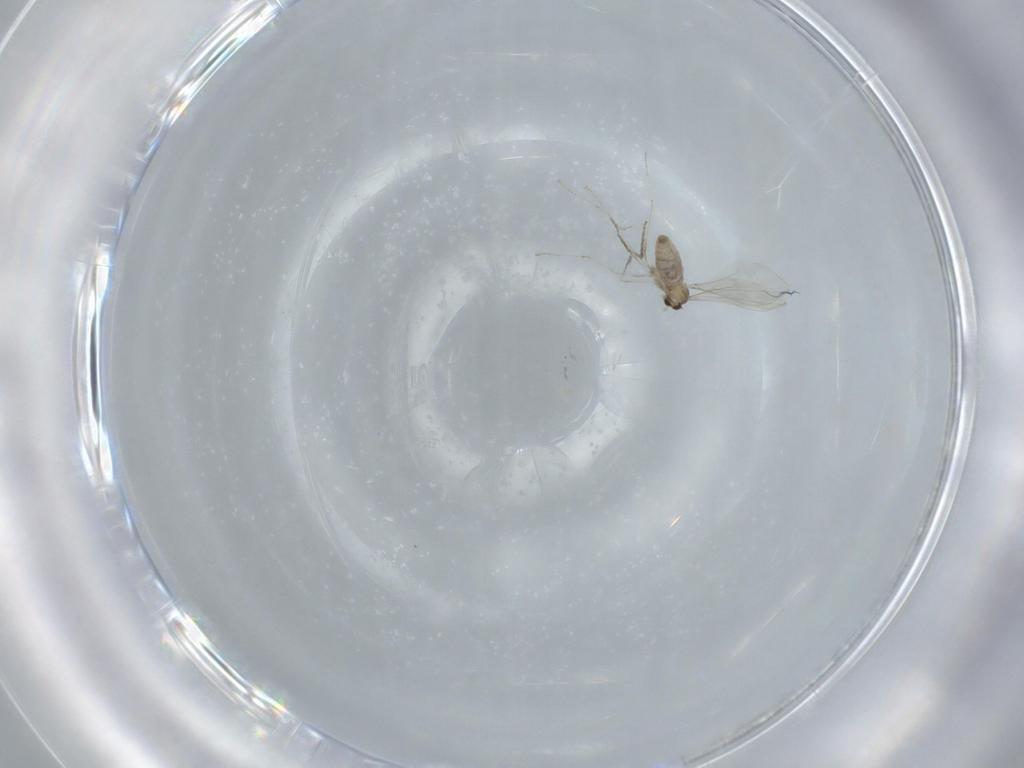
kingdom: Animalia
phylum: Arthropoda
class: Insecta
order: Diptera
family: Cecidomyiidae
